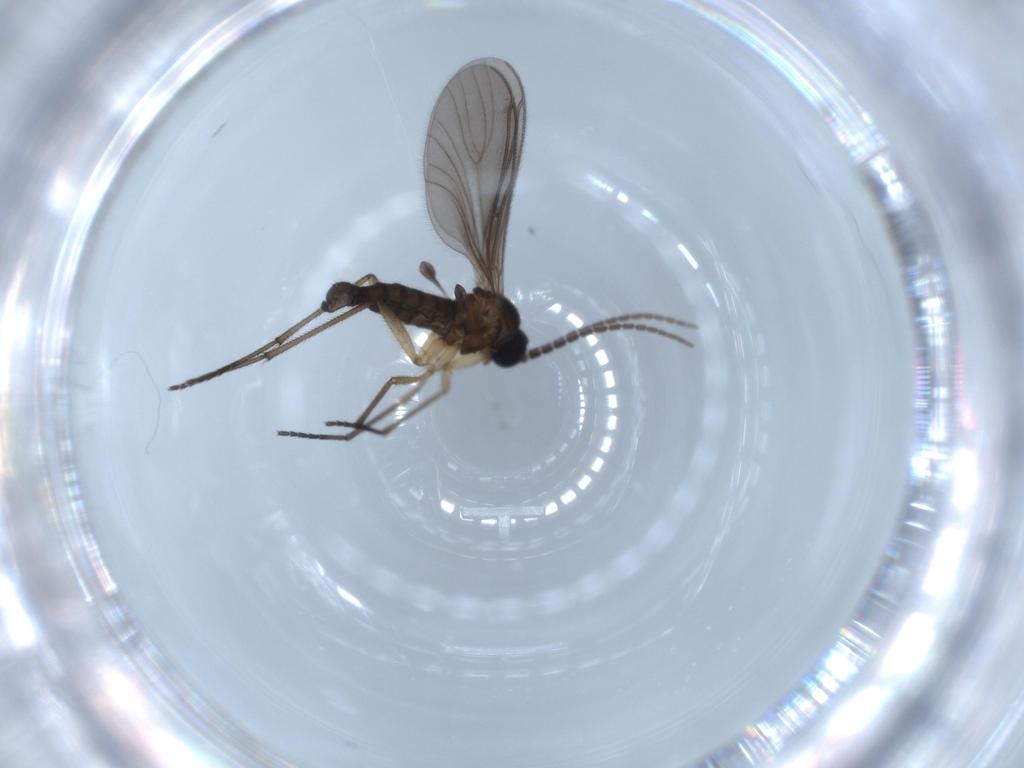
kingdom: Animalia
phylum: Arthropoda
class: Insecta
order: Diptera
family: Sciaridae
